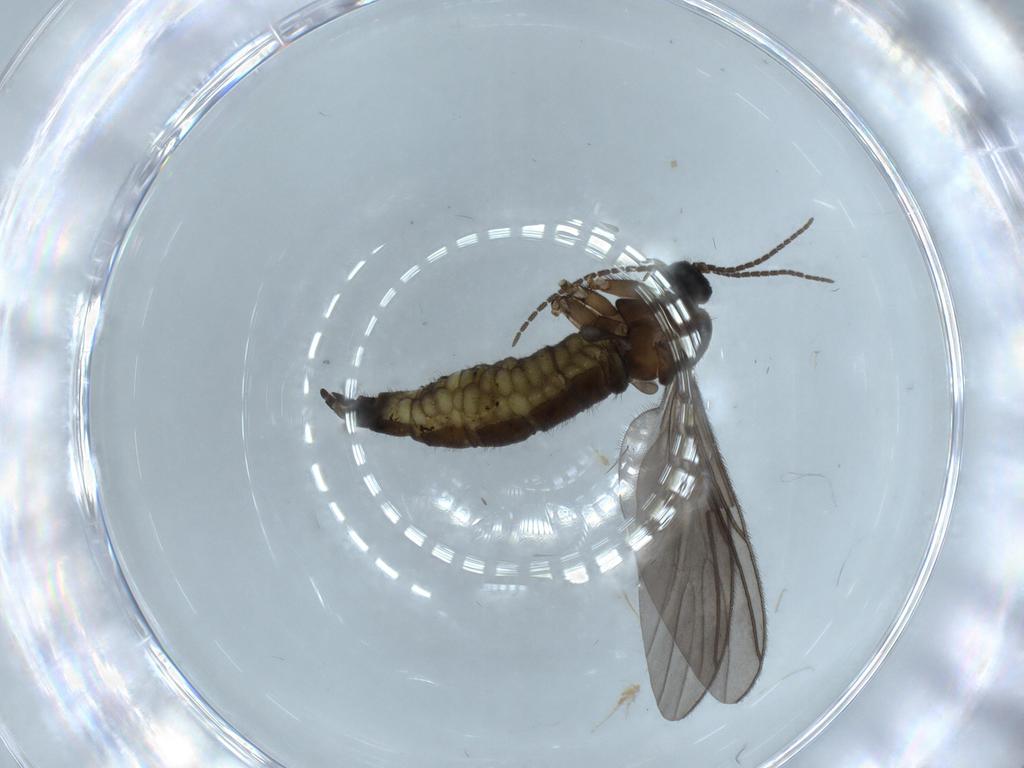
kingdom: Animalia
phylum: Arthropoda
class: Insecta
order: Diptera
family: Sciaridae
